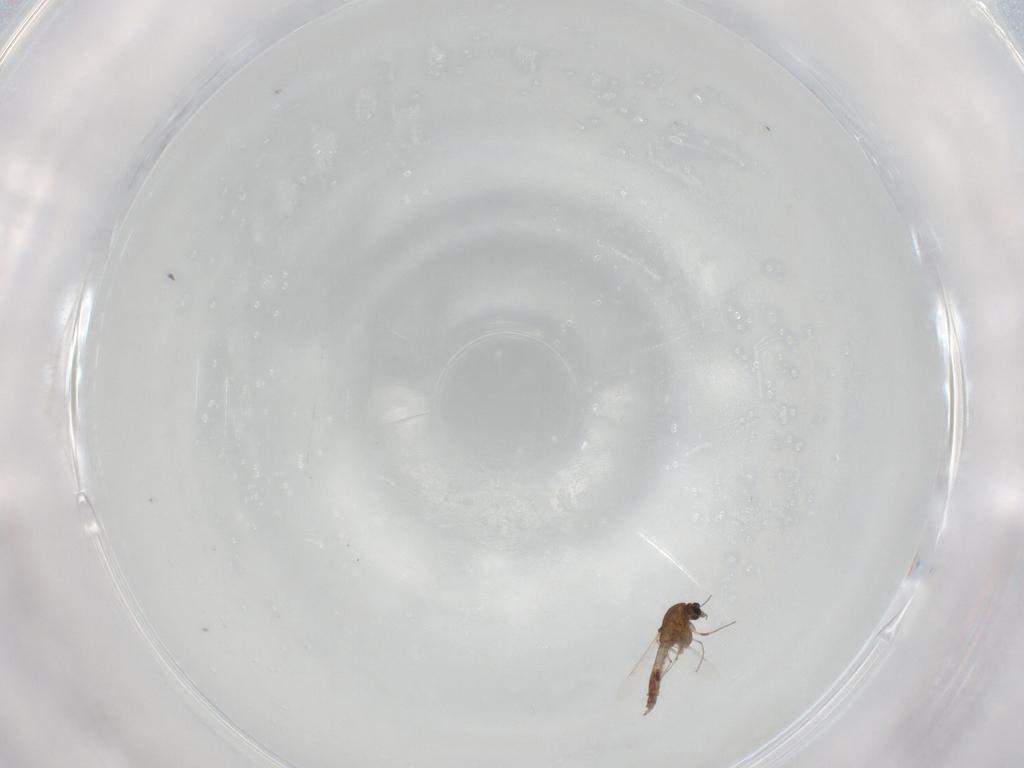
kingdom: Animalia
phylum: Arthropoda
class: Insecta
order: Diptera
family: Chironomidae
